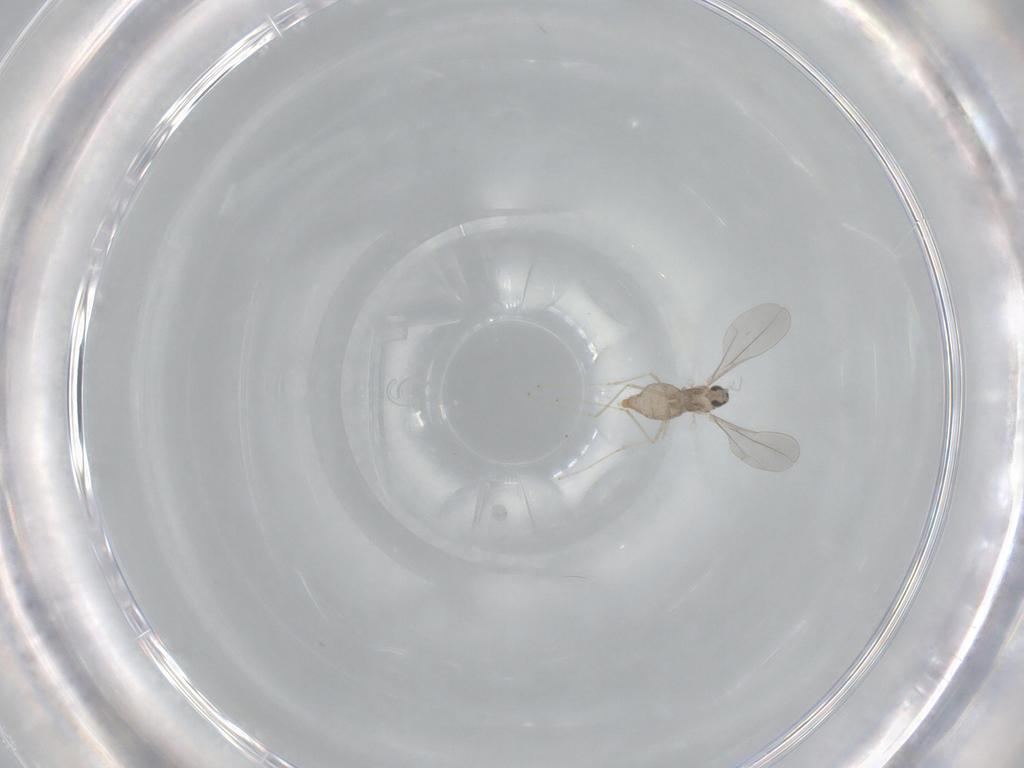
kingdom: Animalia
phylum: Arthropoda
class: Insecta
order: Diptera
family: Cecidomyiidae
